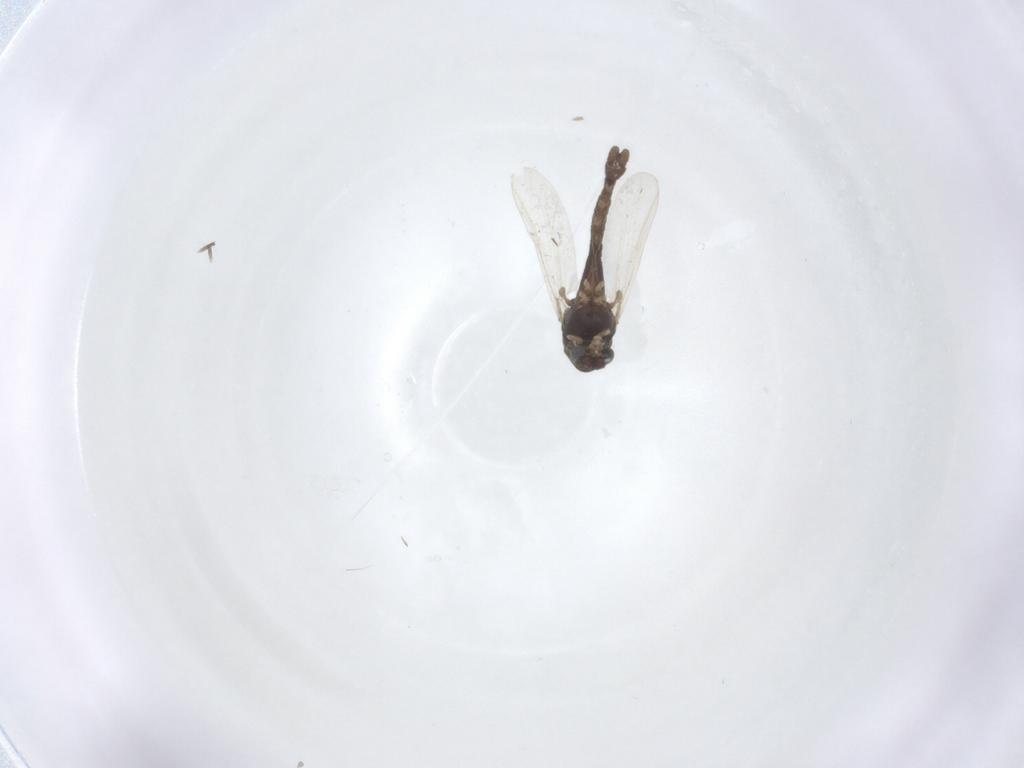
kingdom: Animalia
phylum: Arthropoda
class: Insecta
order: Diptera
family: Chironomidae
